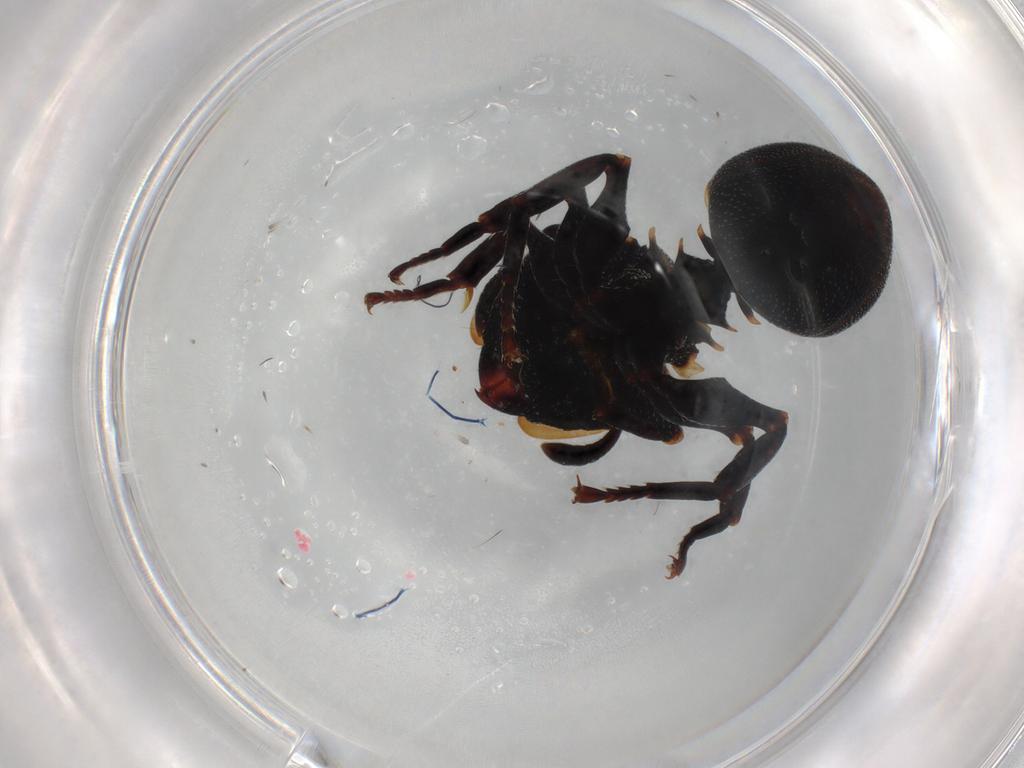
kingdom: Animalia
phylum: Arthropoda
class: Insecta
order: Hymenoptera
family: Formicidae
